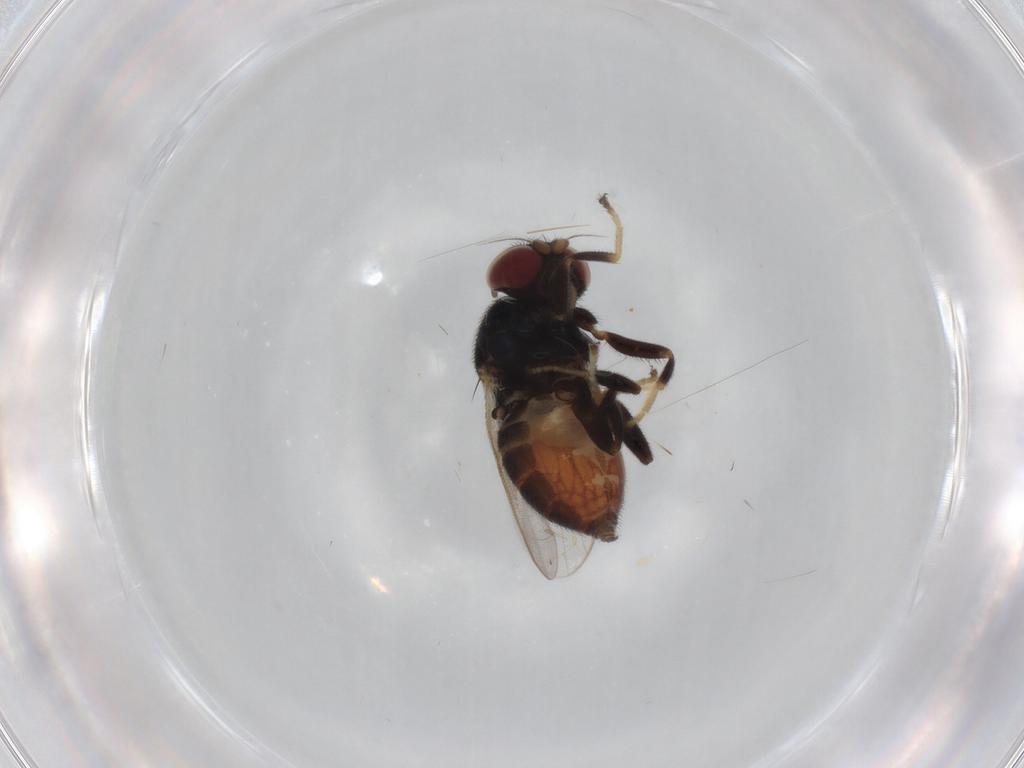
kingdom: Animalia
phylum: Arthropoda
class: Insecta
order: Diptera
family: Chloropidae
